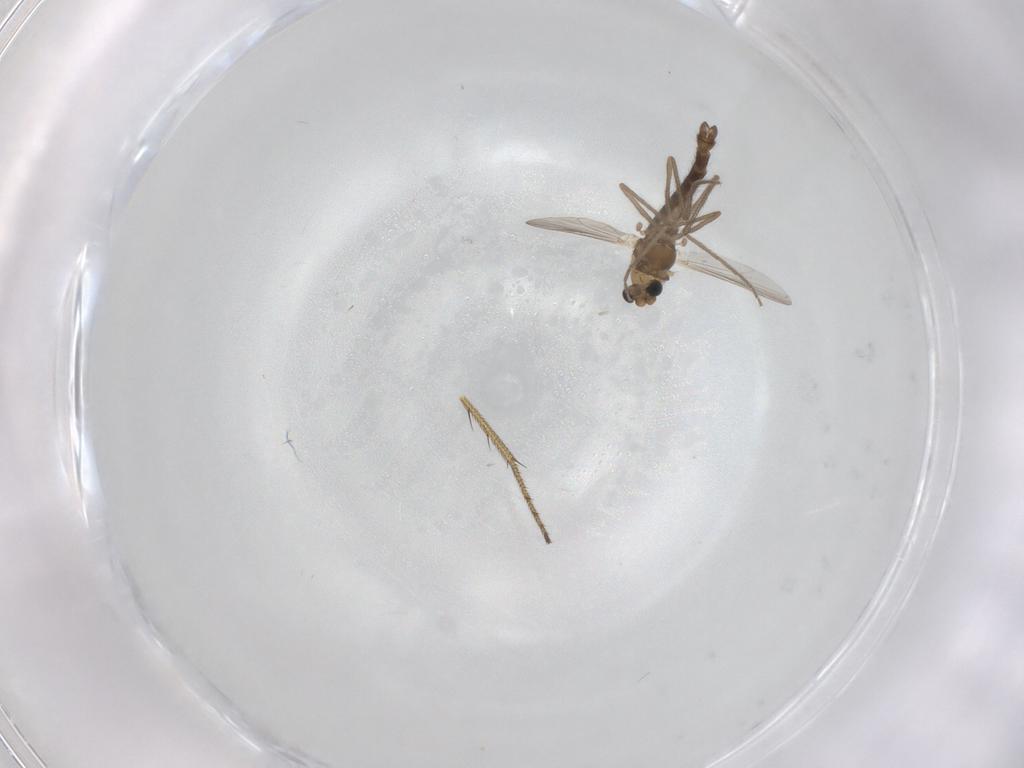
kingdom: Animalia
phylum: Arthropoda
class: Insecta
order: Diptera
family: Chironomidae
